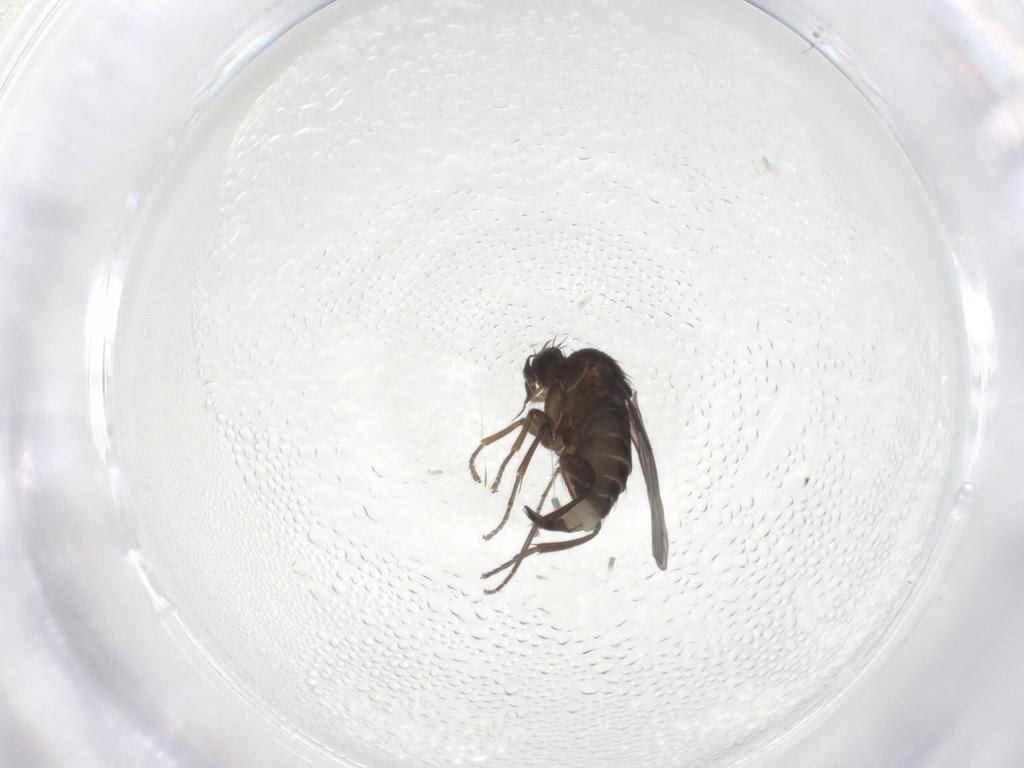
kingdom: Animalia
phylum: Arthropoda
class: Insecta
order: Diptera
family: Phoridae
